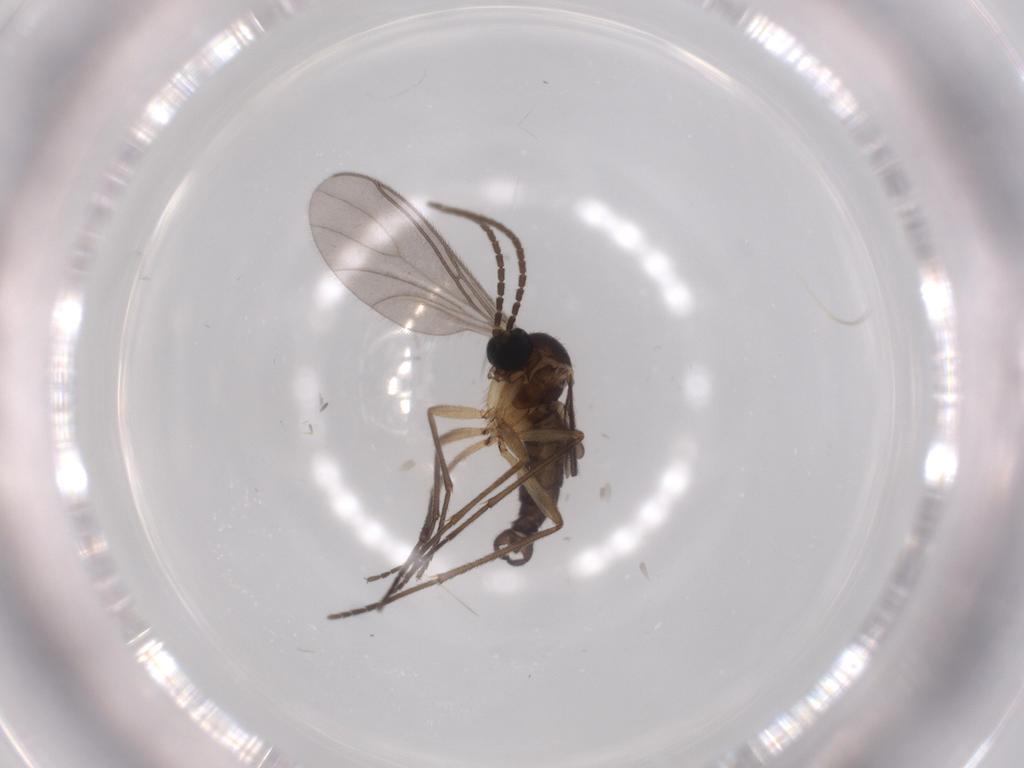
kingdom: Animalia
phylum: Arthropoda
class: Insecta
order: Diptera
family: Sciaridae
